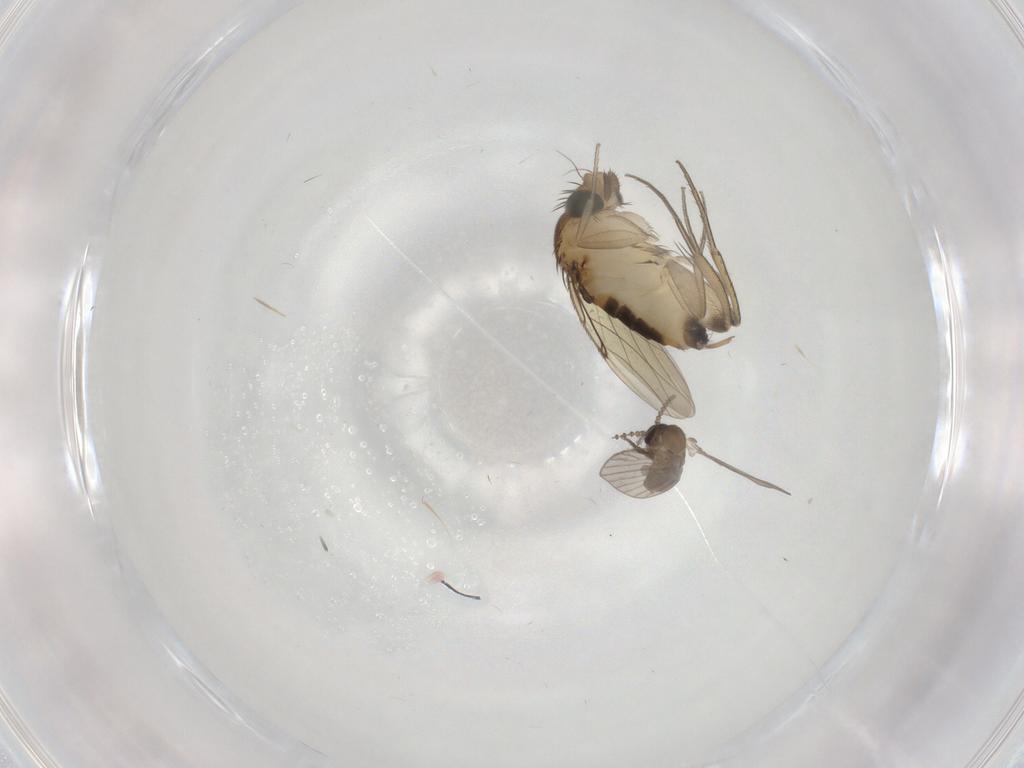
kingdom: Animalia
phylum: Arthropoda
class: Insecta
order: Diptera
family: Phoridae
